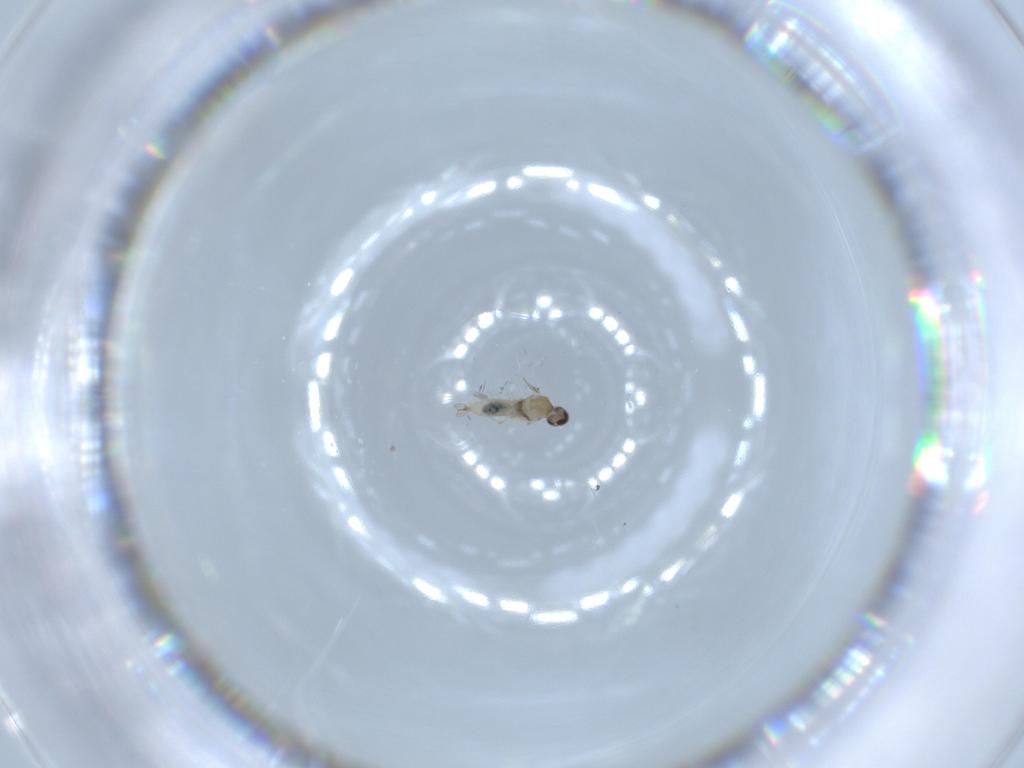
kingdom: Animalia
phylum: Arthropoda
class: Insecta
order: Diptera
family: Cecidomyiidae
